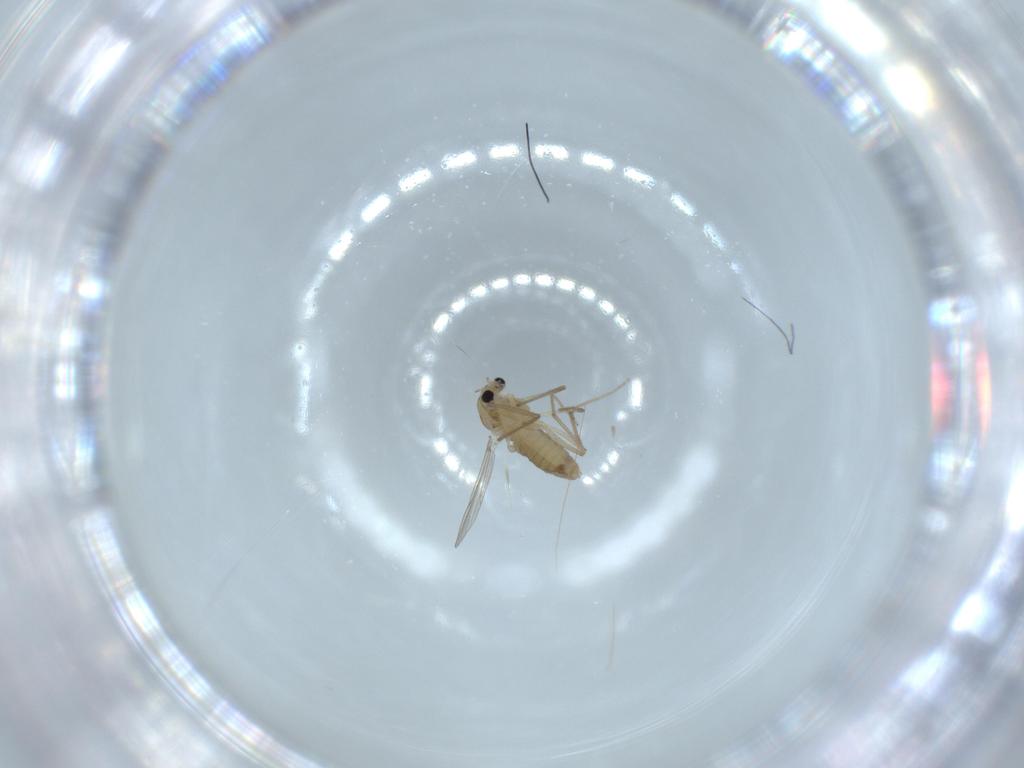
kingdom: Animalia
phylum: Arthropoda
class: Insecta
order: Diptera
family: Chironomidae
